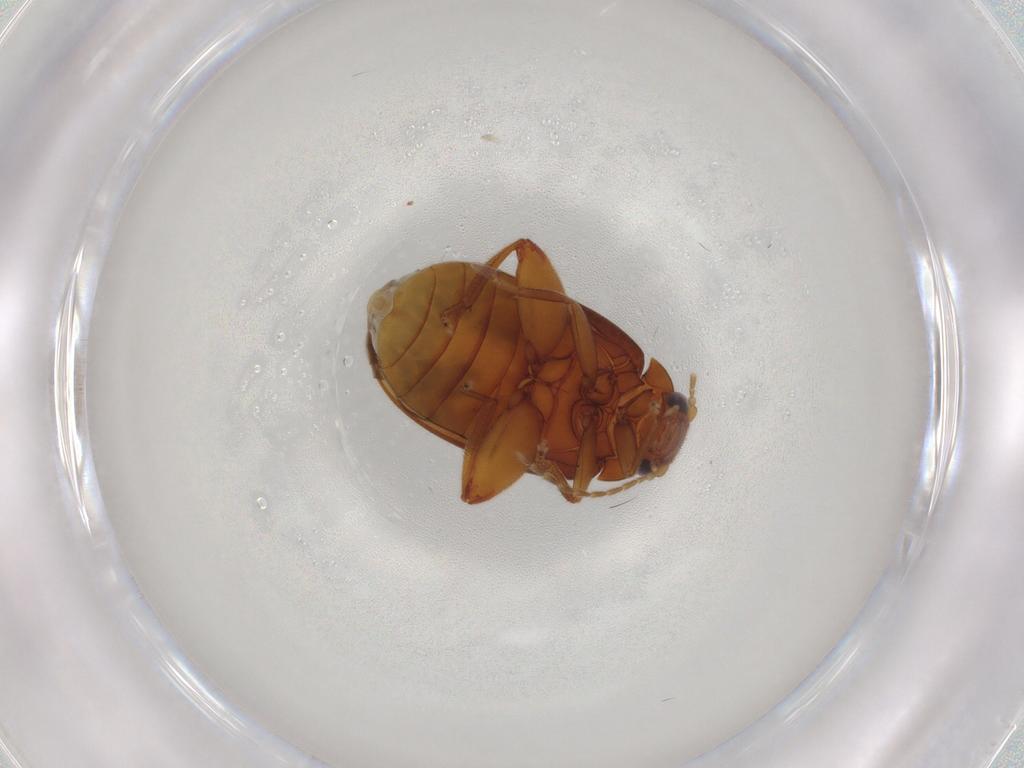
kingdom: Animalia
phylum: Arthropoda
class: Insecta
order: Coleoptera
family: Scirtidae
